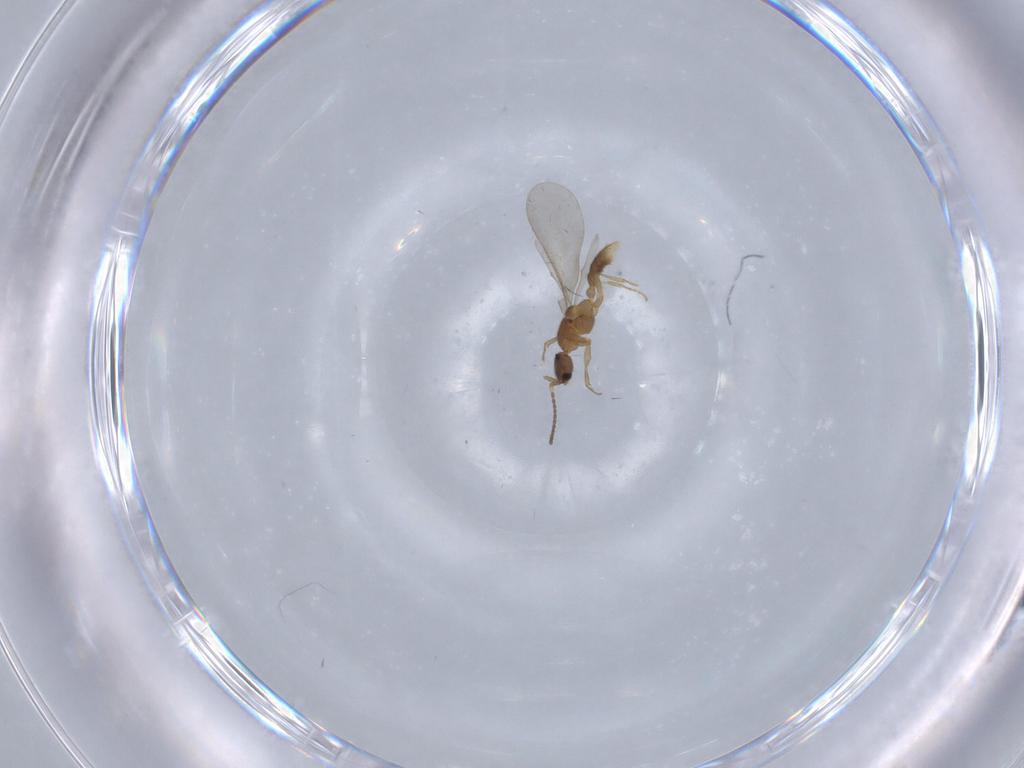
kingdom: Animalia
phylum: Arthropoda
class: Insecta
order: Hymenoptera
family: Formicidae
